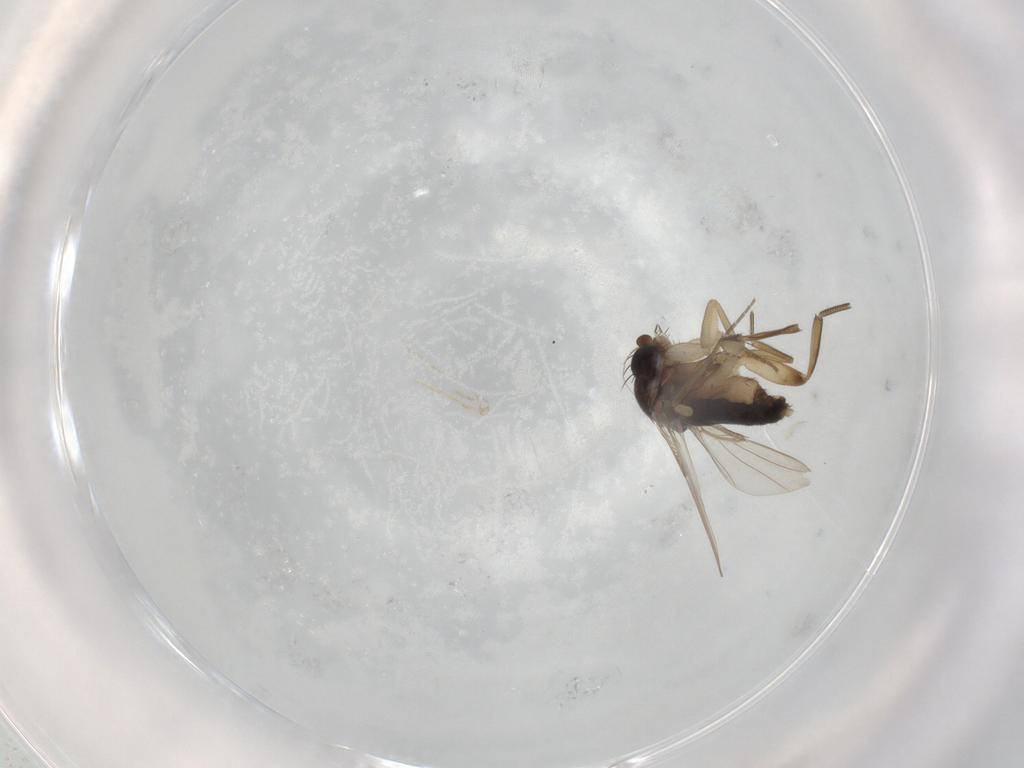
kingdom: Animalia
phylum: Arthropoda
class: Insecta
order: Diptera
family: Phoridae
